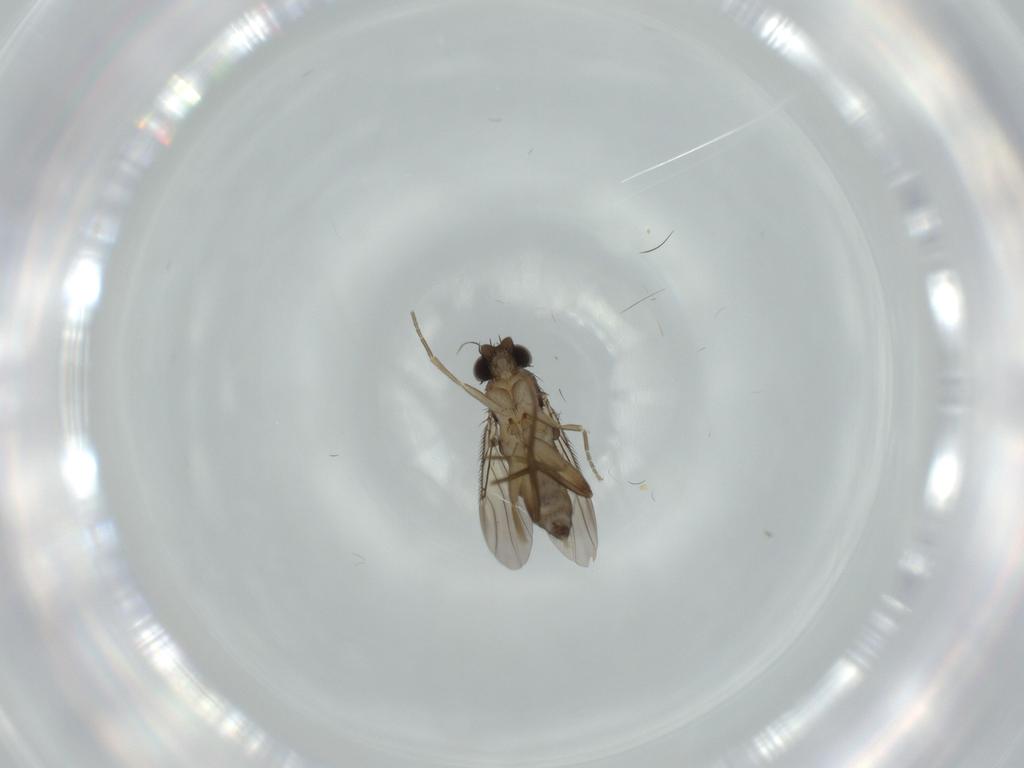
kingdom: Animalia
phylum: Arthropoda
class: Insecta
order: Diptera
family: Phoridae
